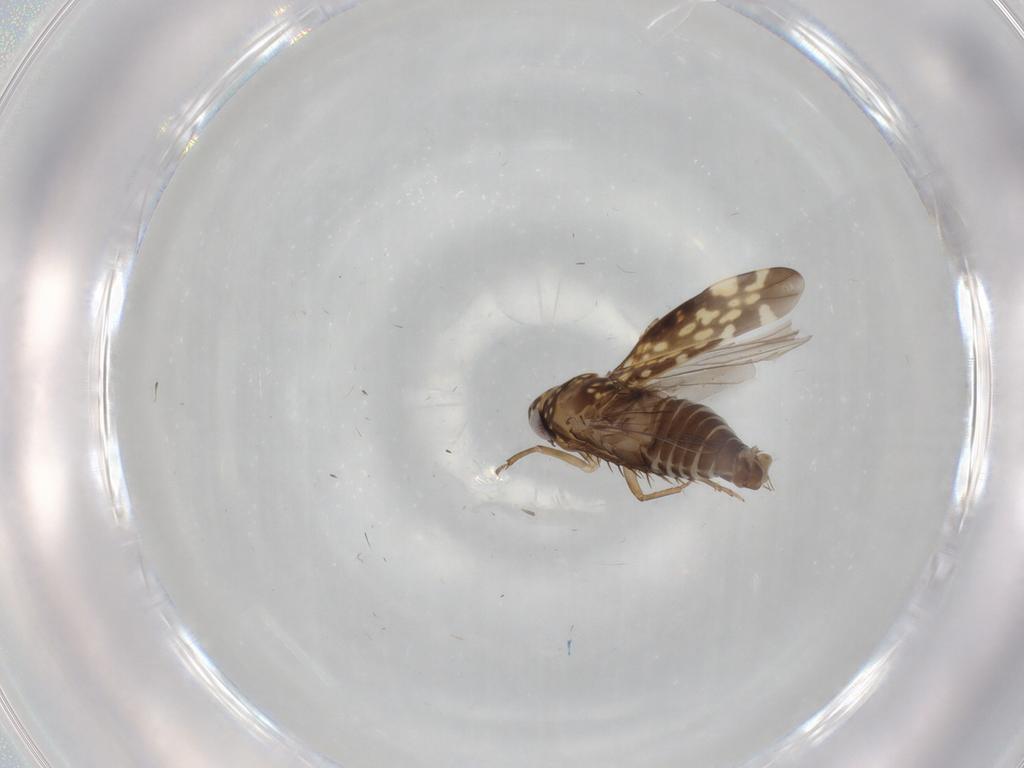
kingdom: Animalia
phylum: Arthropoda
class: Insecta
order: Hemiptera
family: Cicadellidae
